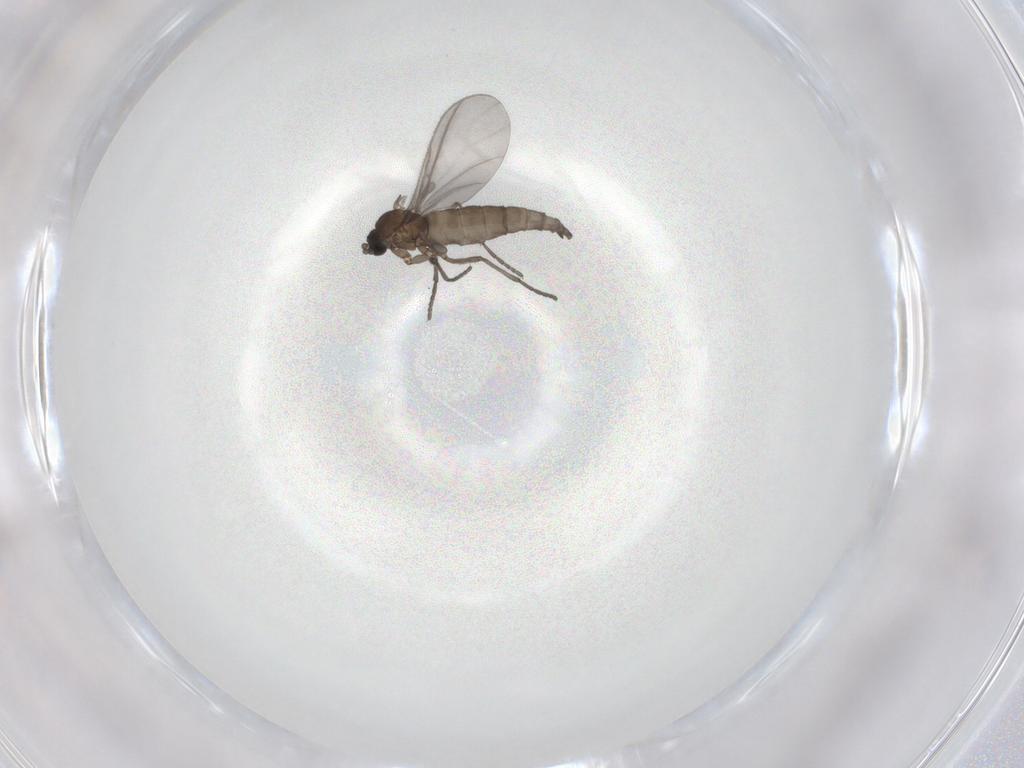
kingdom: Animalia
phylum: Arthropoda
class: Insecta
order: Diptera
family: Sciaridae
